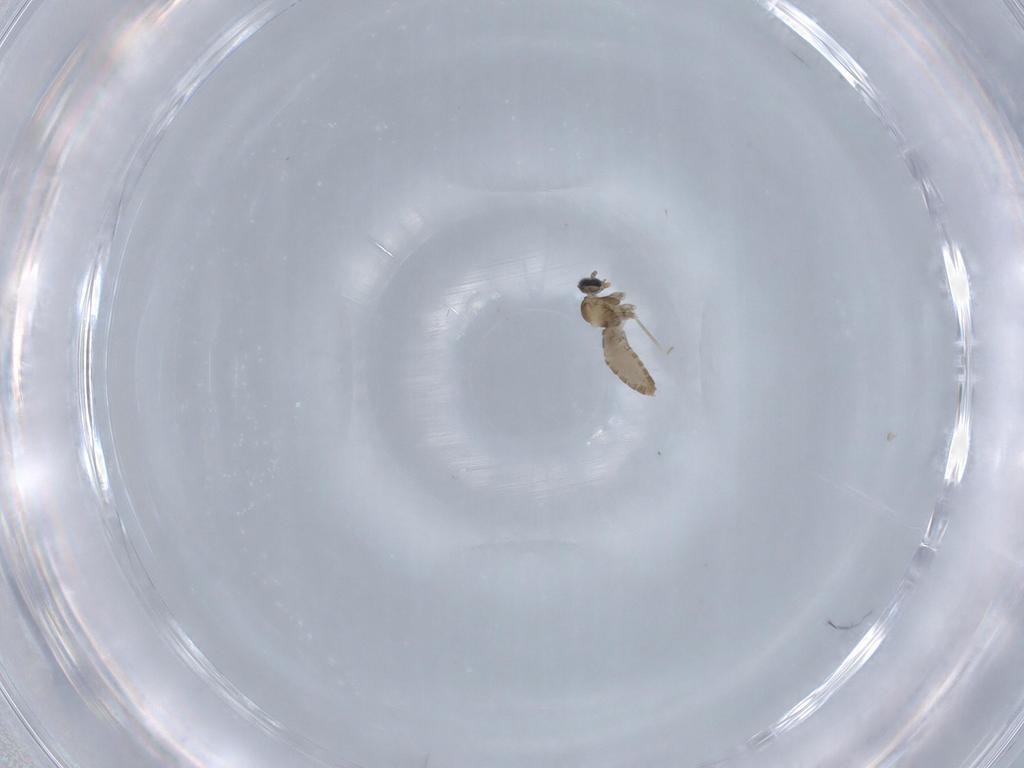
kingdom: Animalia
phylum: Arthropoda
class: Insecta
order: Diptera
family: Cecidomyiidae
